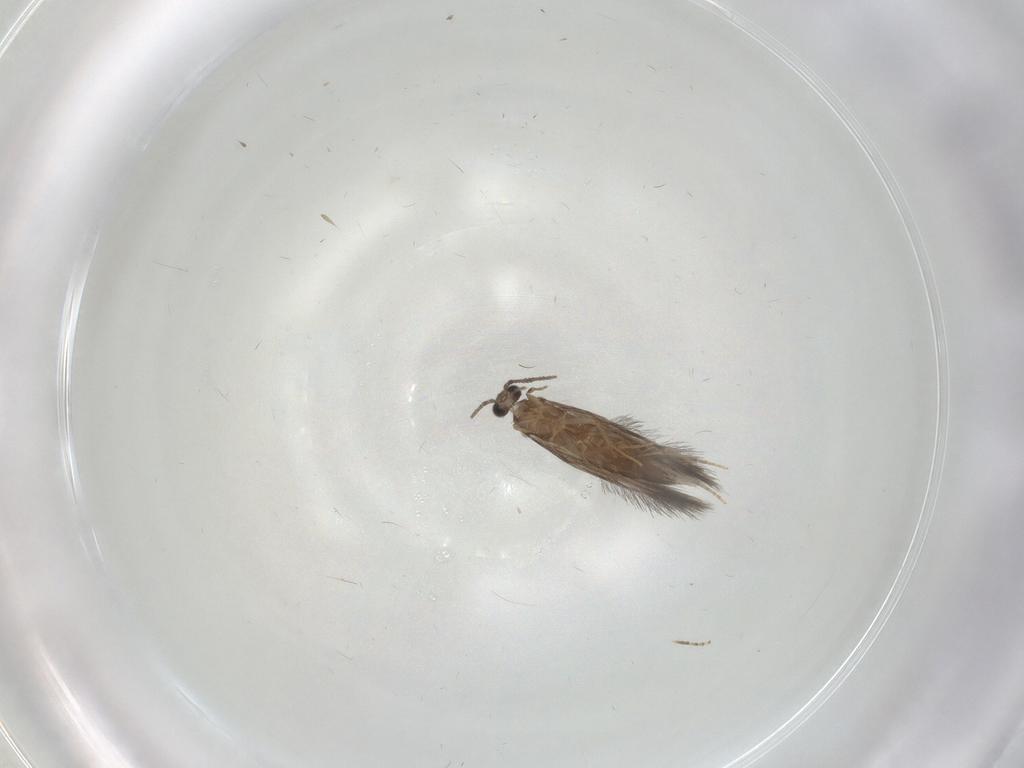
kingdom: Animalia
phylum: Arthropoda
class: Insecta
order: Trichoptera
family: Hydroptilidae
